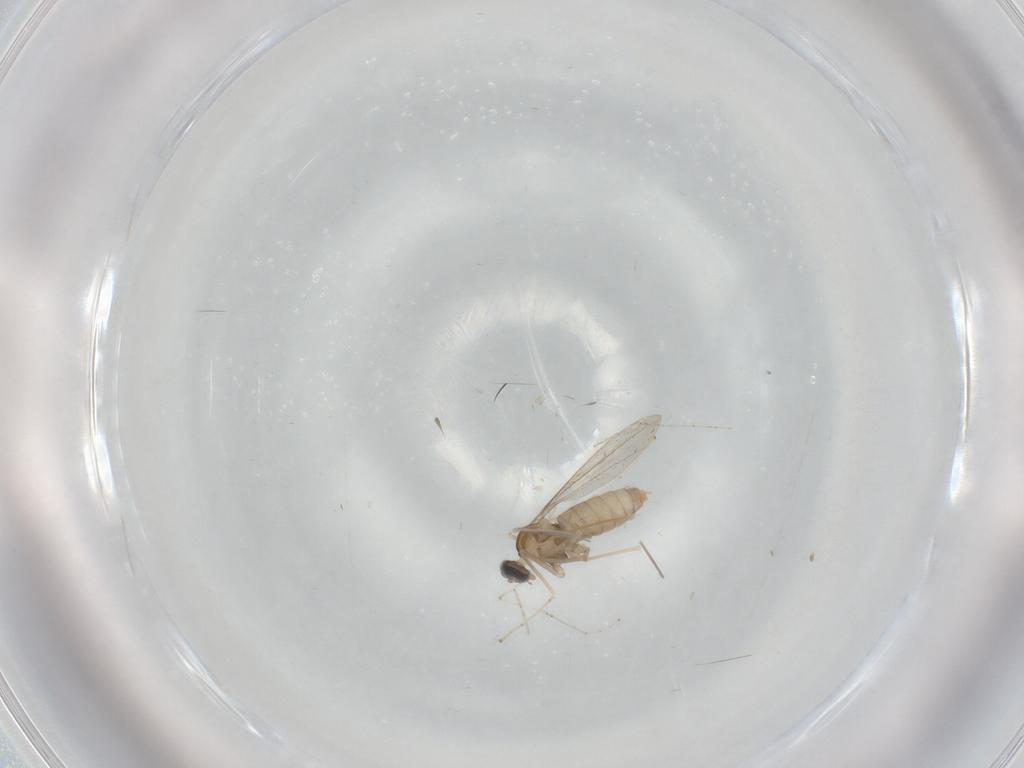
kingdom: Animalia
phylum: Arthropoda
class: Insecta
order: Diptera
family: Cecidomyiidae
